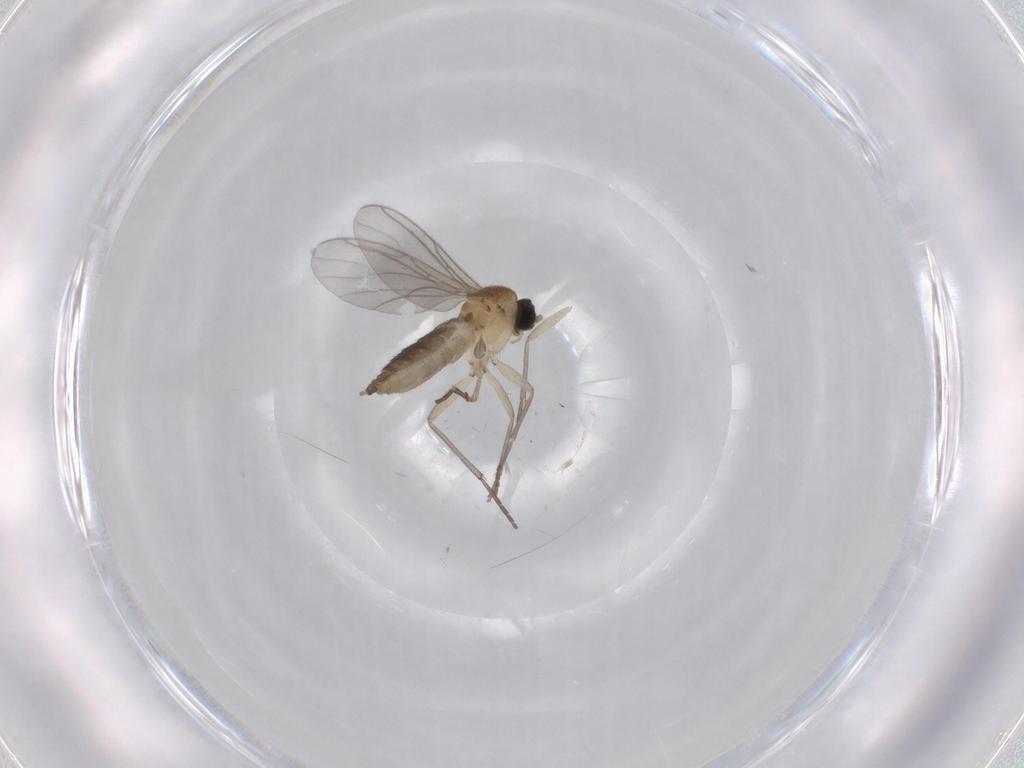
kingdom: Animalia
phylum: Arthropoda
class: Insecta
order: Diptera
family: Sciaridae
